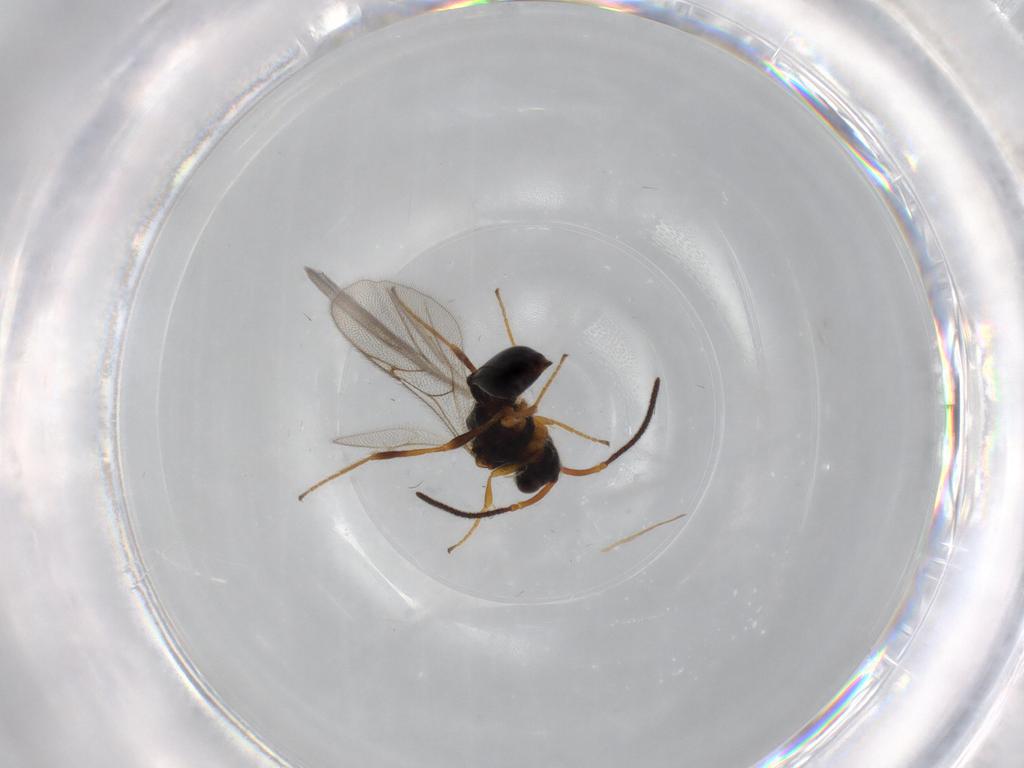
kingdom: Animalia
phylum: Arthropoda
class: Insecta
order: Hymenoptera
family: Diapriidae
